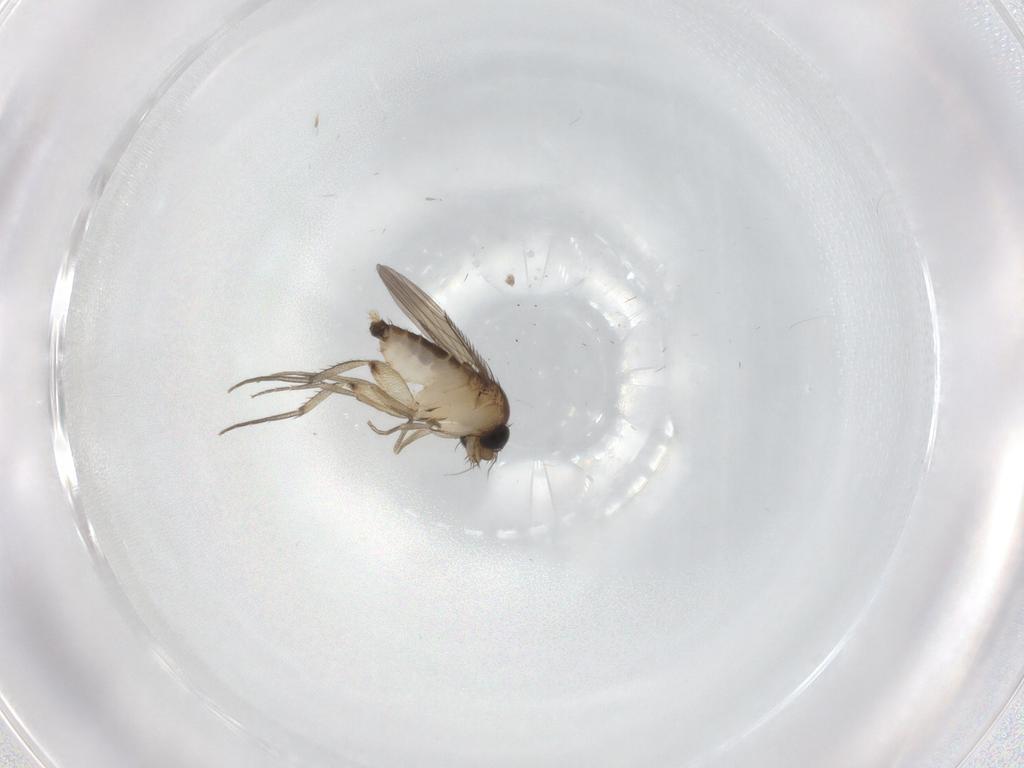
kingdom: Animalia
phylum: Arthropoda
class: Insecta
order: Diptera
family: Phoridae
